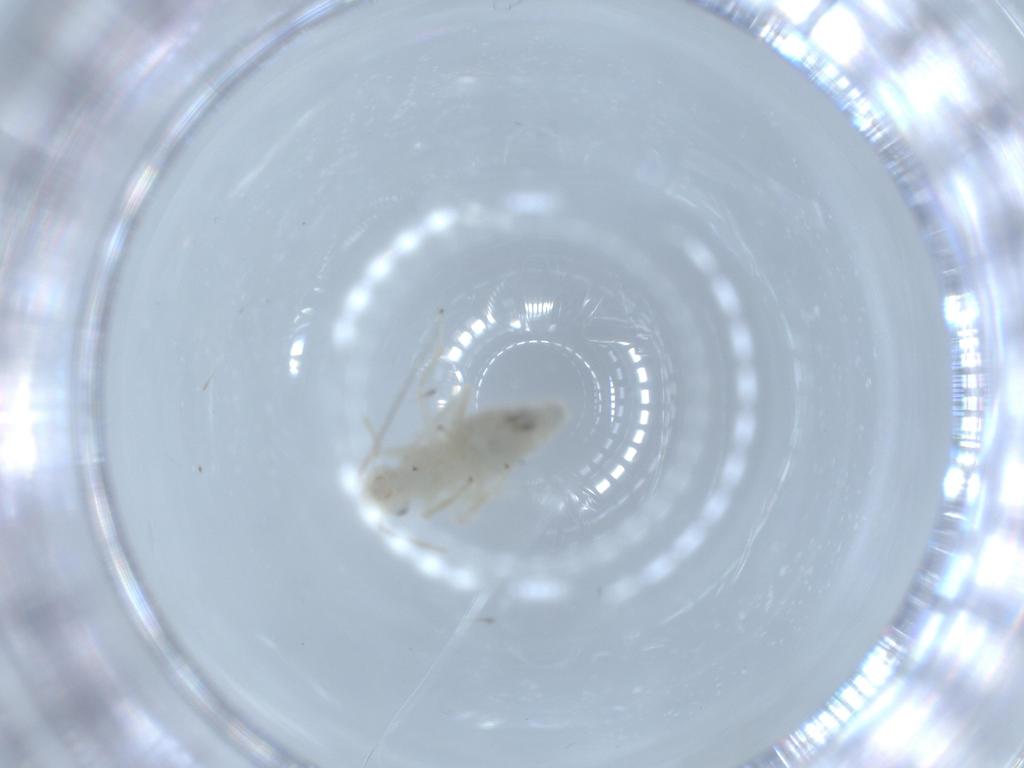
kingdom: Animalia
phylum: Arthropoda
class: Insecta
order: Psocodea
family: Caeciliusidae
